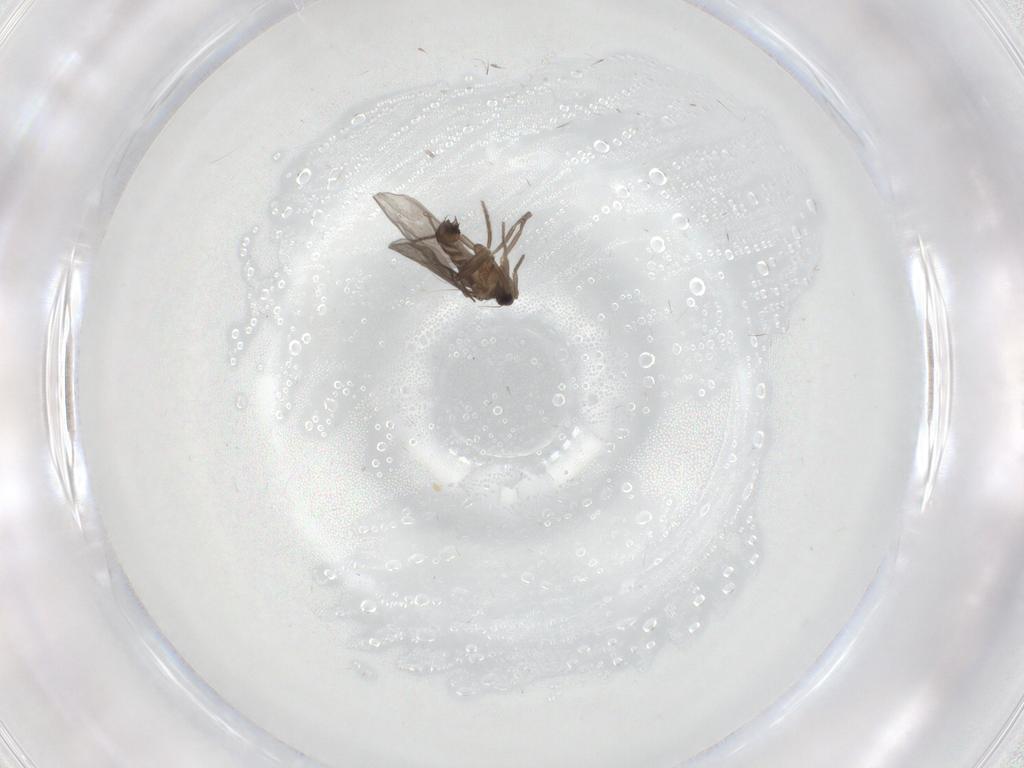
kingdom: Animalia
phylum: Arthropoda
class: Insecta
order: Diptera
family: Phoridae
